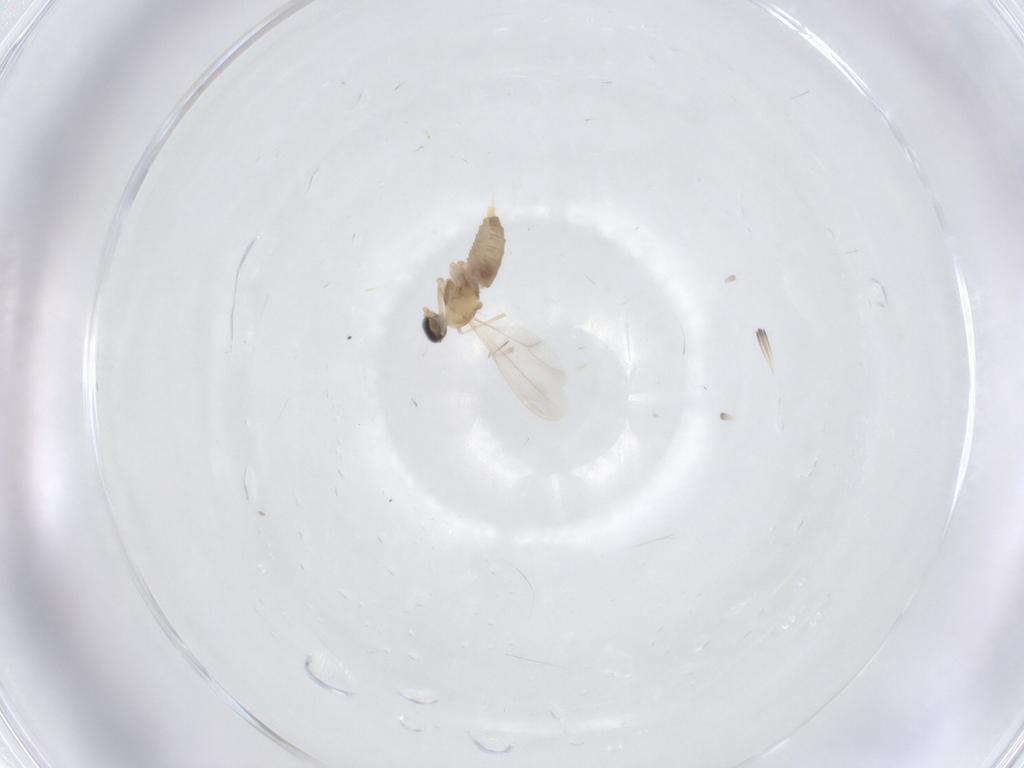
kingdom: Animalia
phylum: Arthropoda
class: Insecta
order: Diptera
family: Cecidomyiidae
